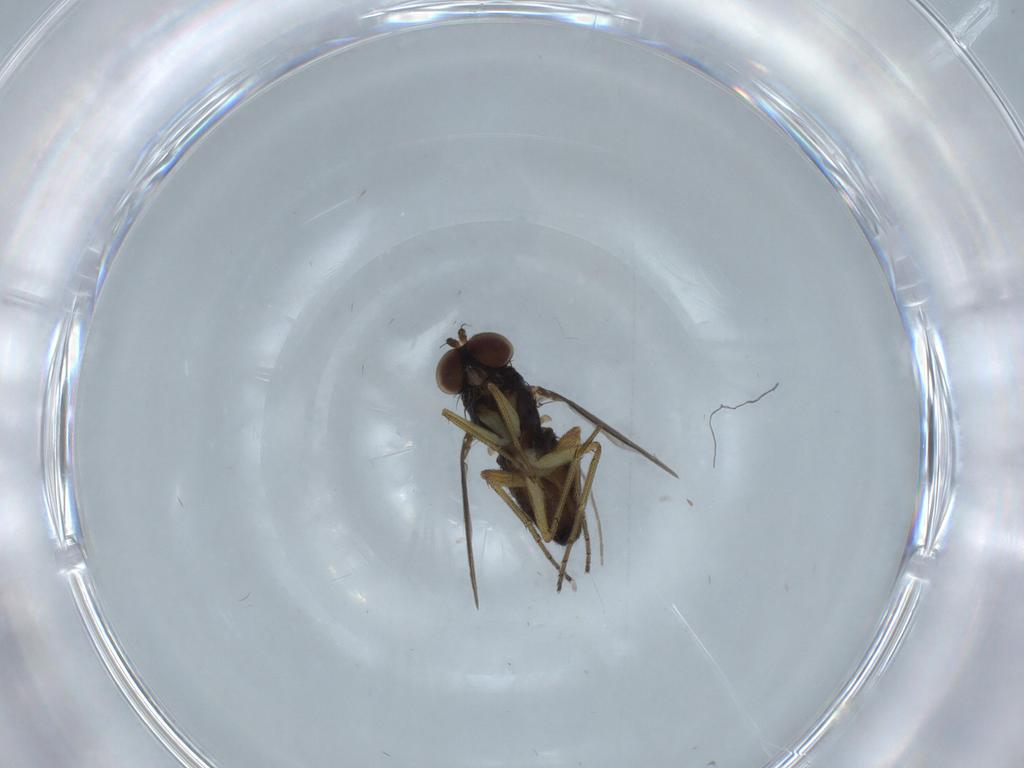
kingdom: Animalia
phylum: Arthropoda
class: Insecta
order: Diptera
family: Dolichopodidae
